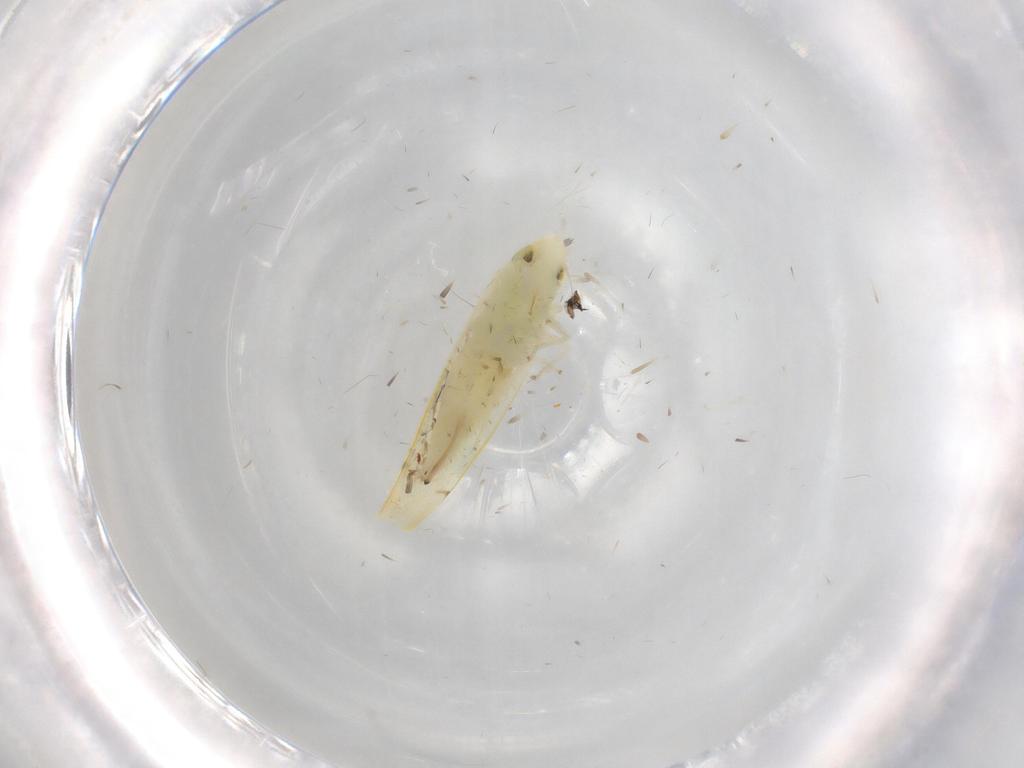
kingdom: Animalia
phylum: Arthropoda
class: Insecta
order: Hemiptera
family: Cicadellidae
